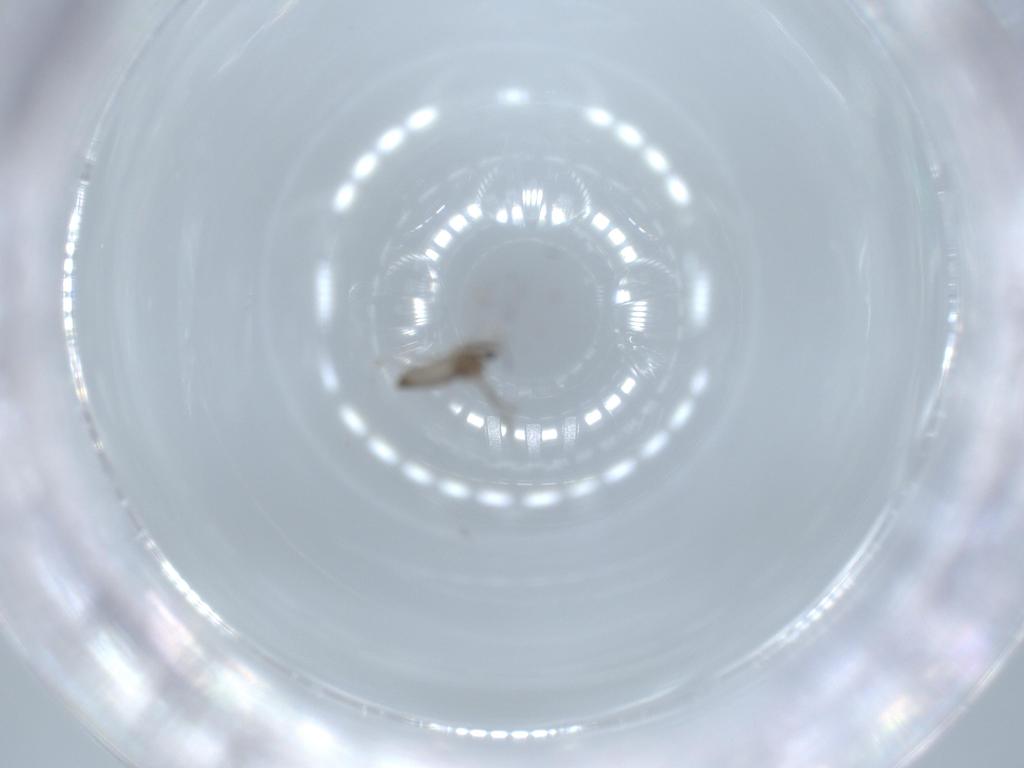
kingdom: Animalia
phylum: Arthropoda
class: Insecta
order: Diptera
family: Cecidomyiidae
